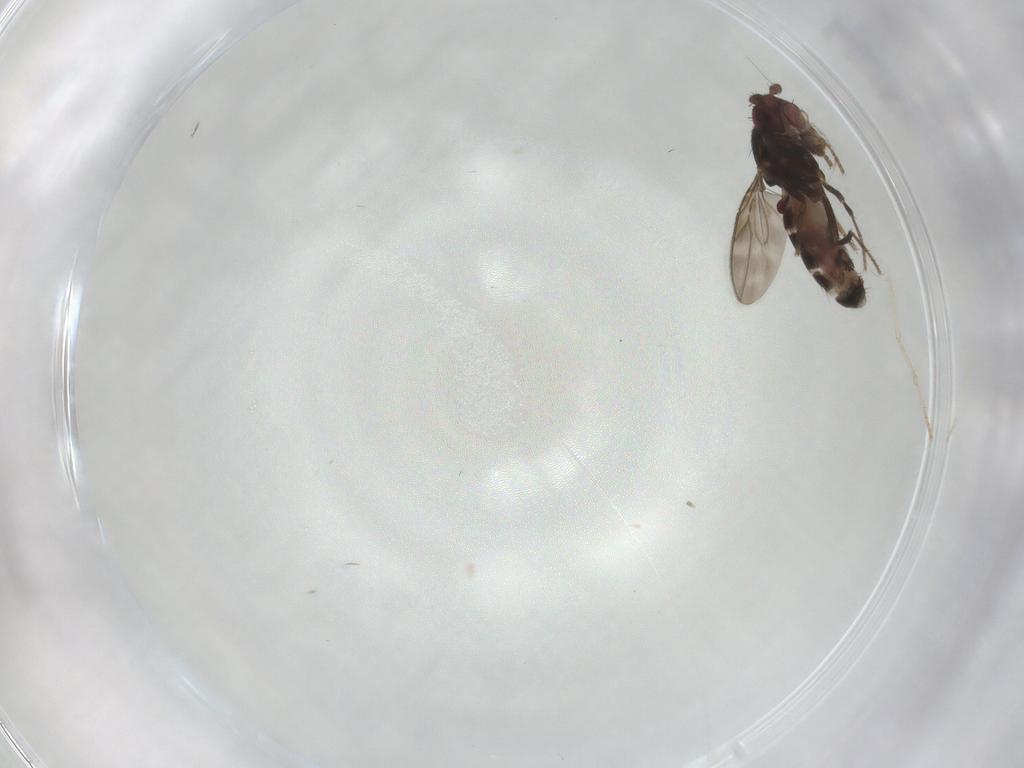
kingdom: Animalia
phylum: Arthropoda
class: Insecta
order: Diptera
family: Sphaeroceridae
